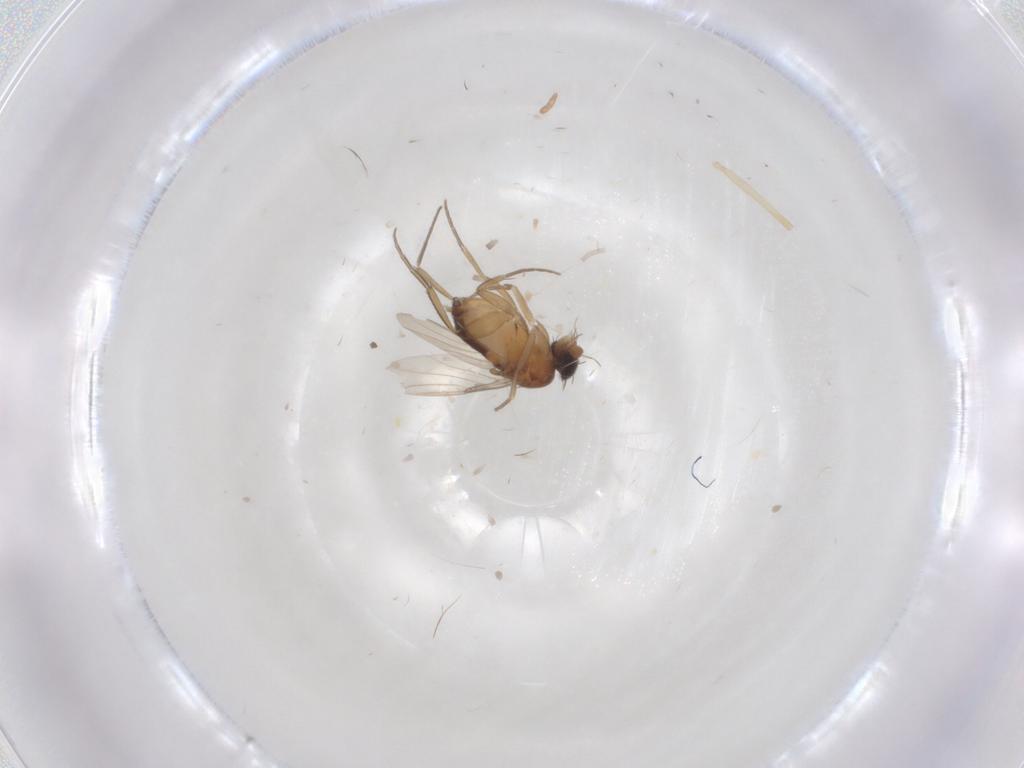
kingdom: Animalia
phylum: Arthropoda
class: Insecta
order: Diptera
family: Phoridae
